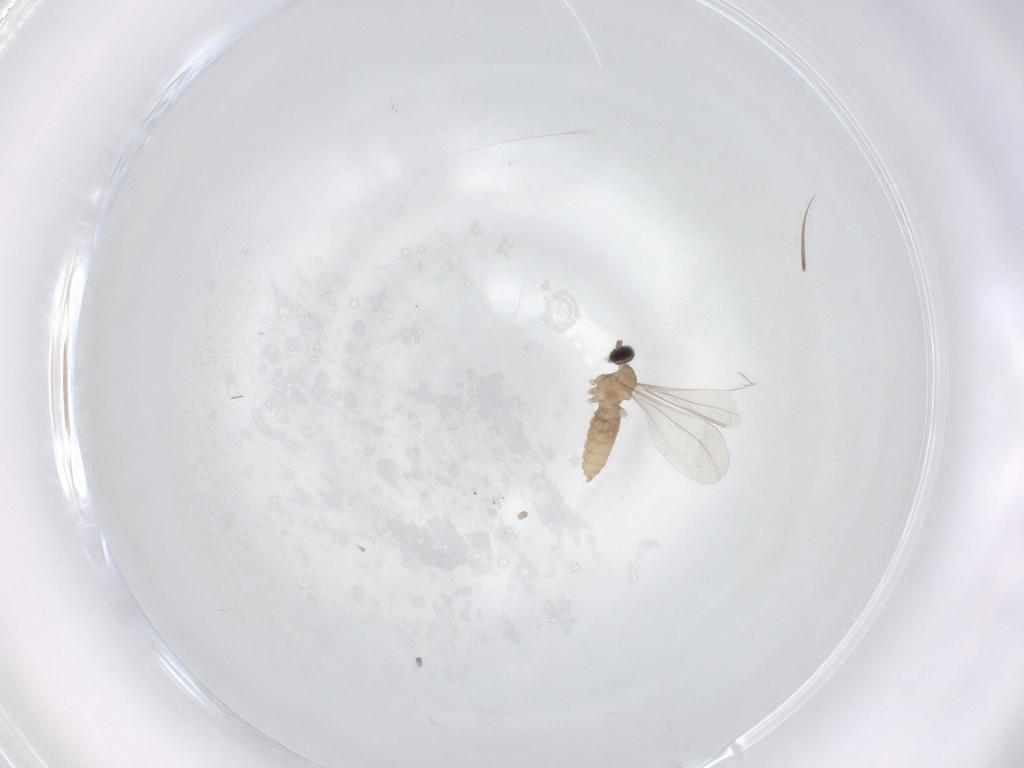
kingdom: Animalia
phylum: Arthropoda
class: Insecta
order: Diptera
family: Cecidomyiidae
